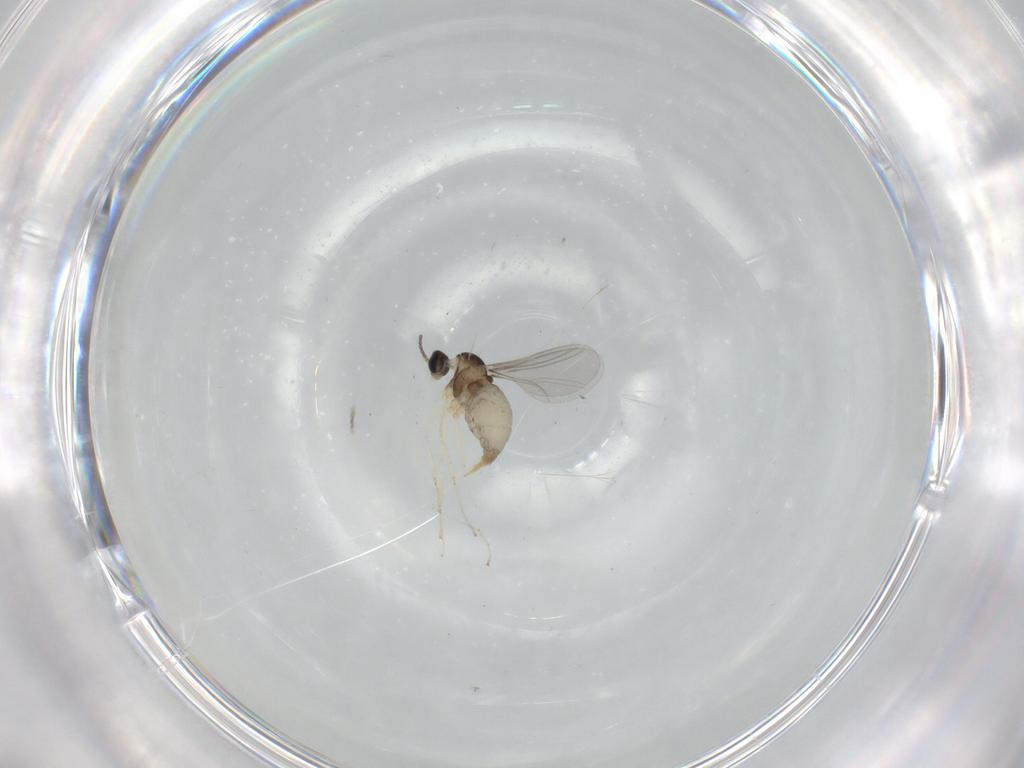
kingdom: Animalia
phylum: Arthropoda
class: Insecta
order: Diptera
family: Cecidomyiidae
